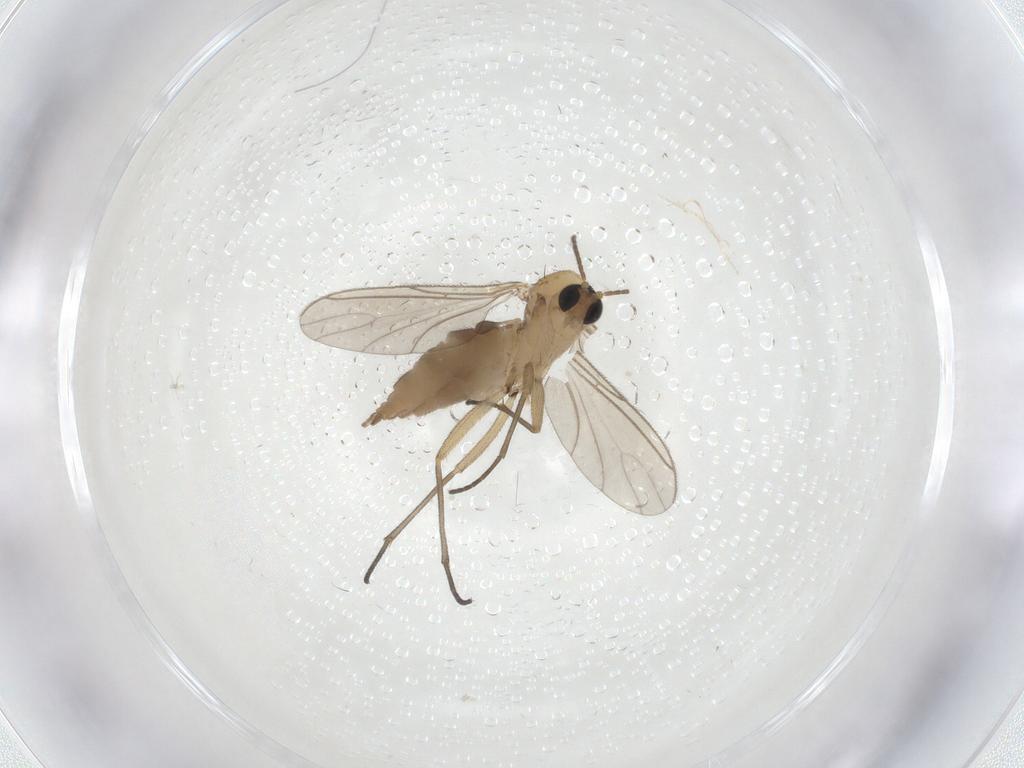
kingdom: Animalia
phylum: Arthropoda
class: Insecta
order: Diptera
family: Sciaridae
